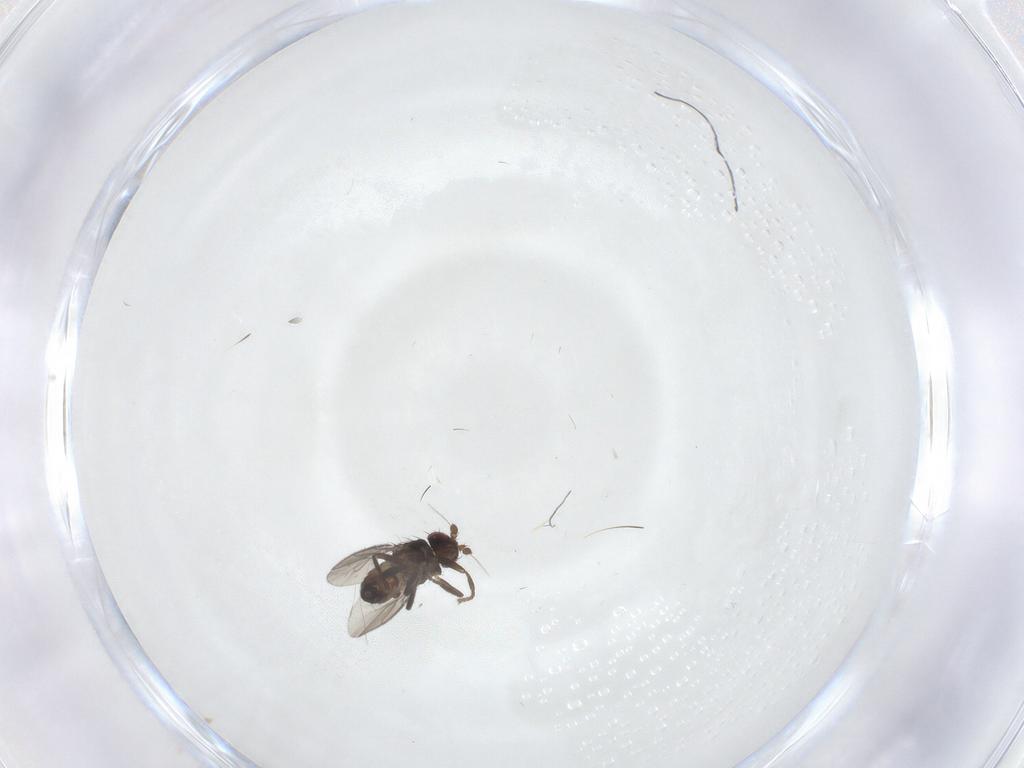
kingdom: Animalia
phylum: Arthropoda
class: Insecta
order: Diptera
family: Sphaeroceridae
